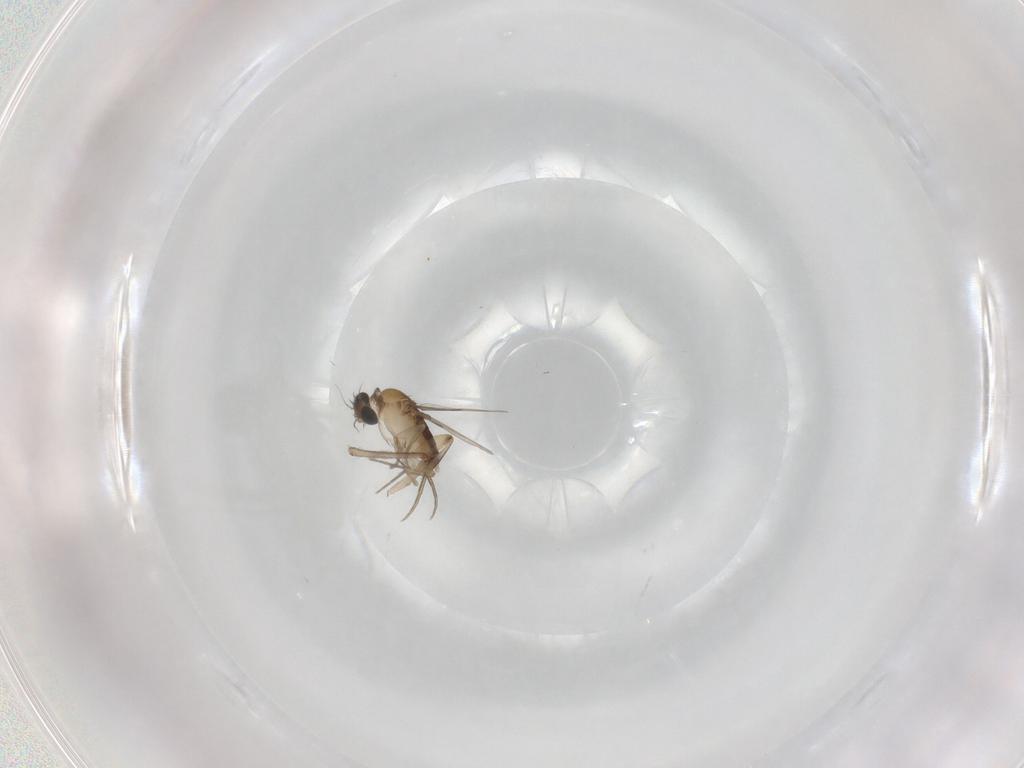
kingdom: Animalia
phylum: Arthropoda
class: Insecta
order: Diptera
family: Phoridae
